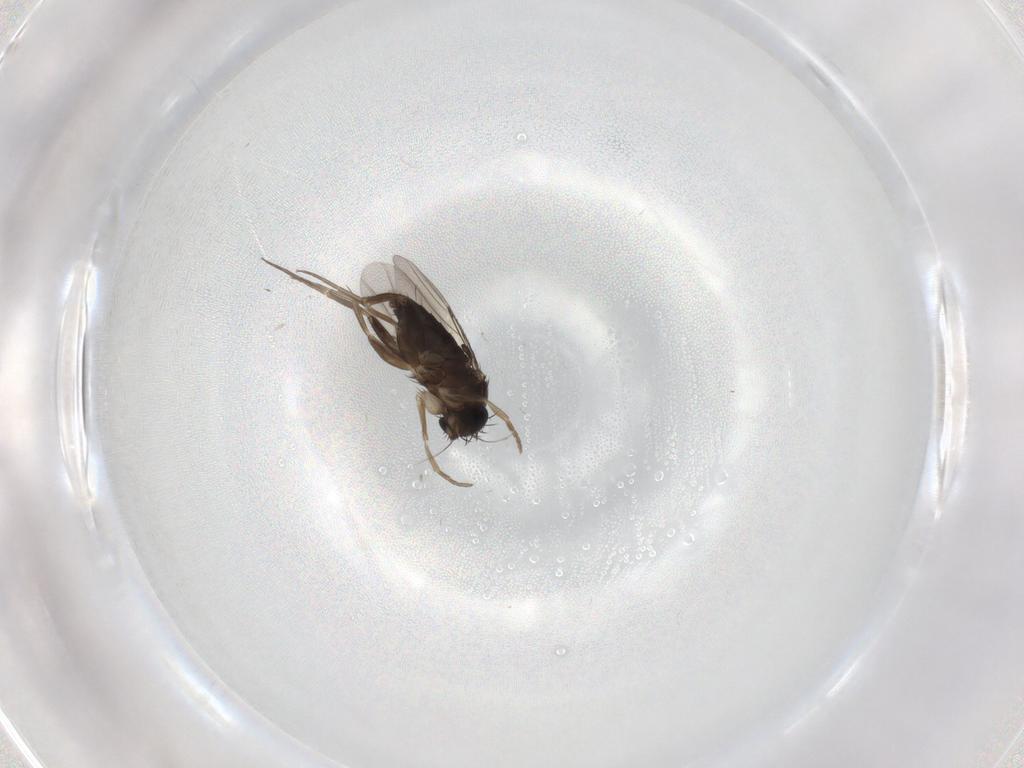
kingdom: Animalia
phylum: Arthropoda
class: Insecta
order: Diptera
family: Phoridae
